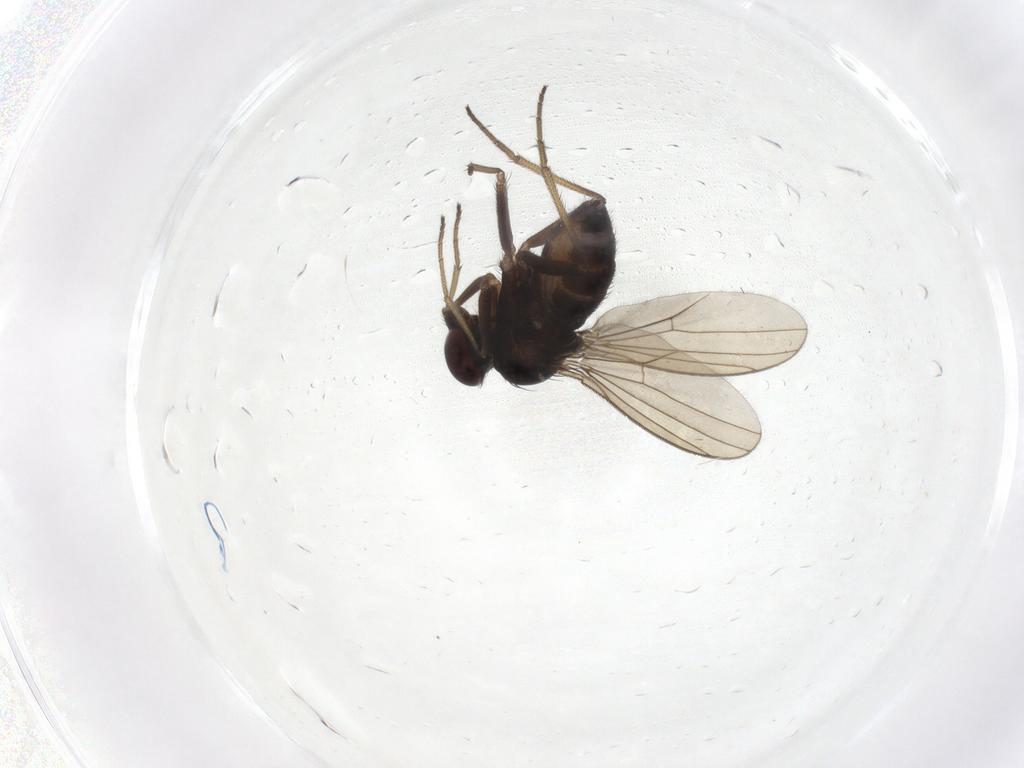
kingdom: Animalia
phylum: Arthropoda
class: Insecta
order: Diptera
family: Dolichopodidae
